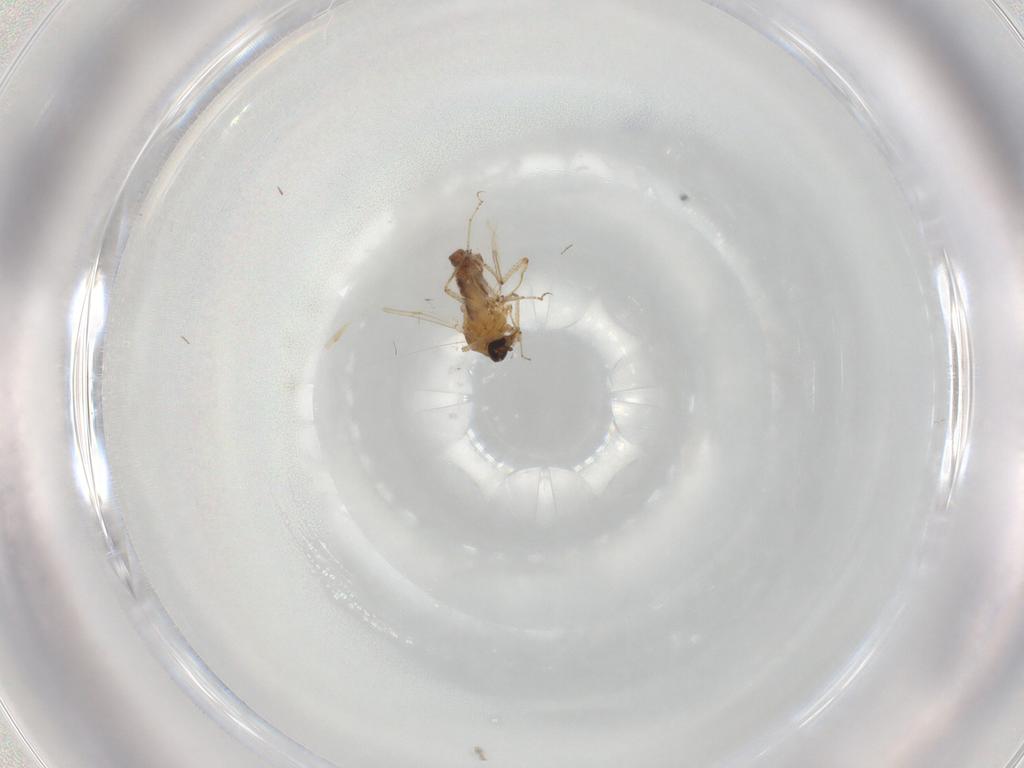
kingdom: Animalia
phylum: Arthropoda
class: Insecta
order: Diptera
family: Ceratopogonidae
